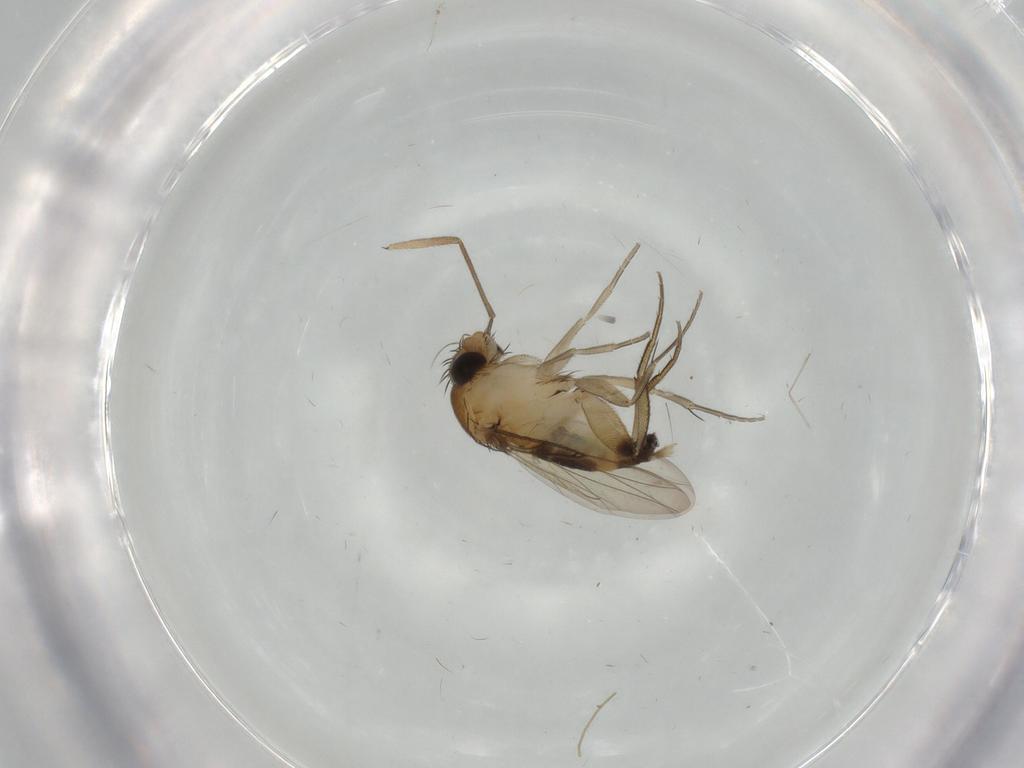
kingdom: Animalia
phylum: Arthropoda
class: Insecta
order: Diptera
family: Phoridae
